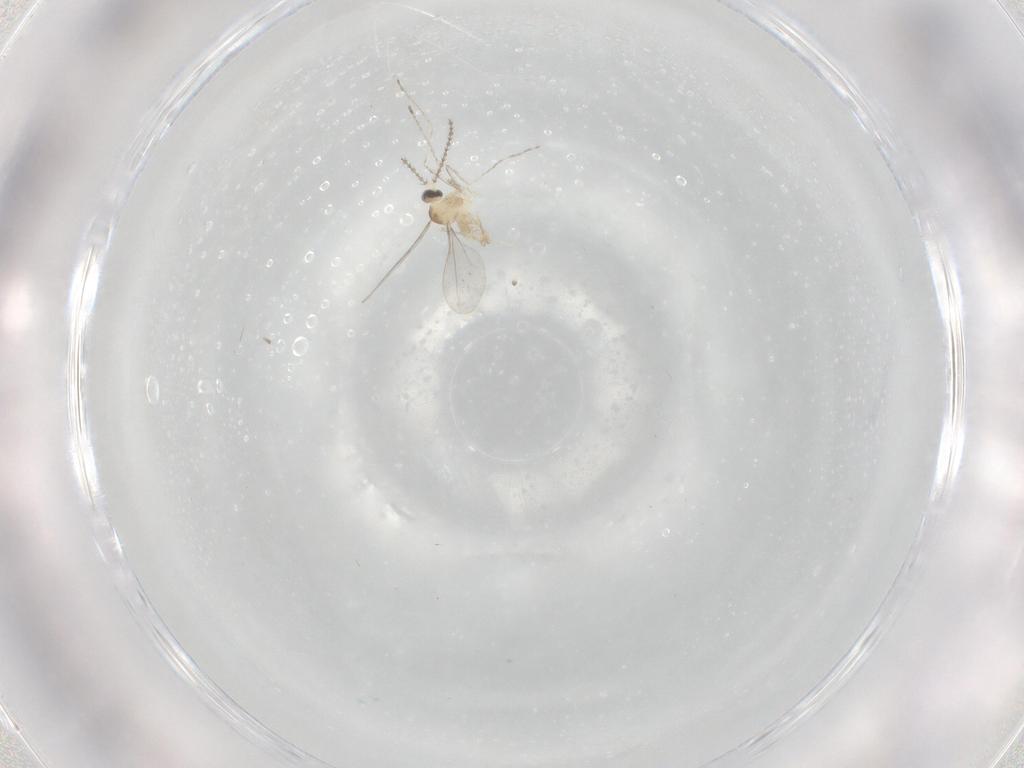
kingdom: Animalia
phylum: Arthropoda
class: Insecta
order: Diptera
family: Cecidomyiidae
